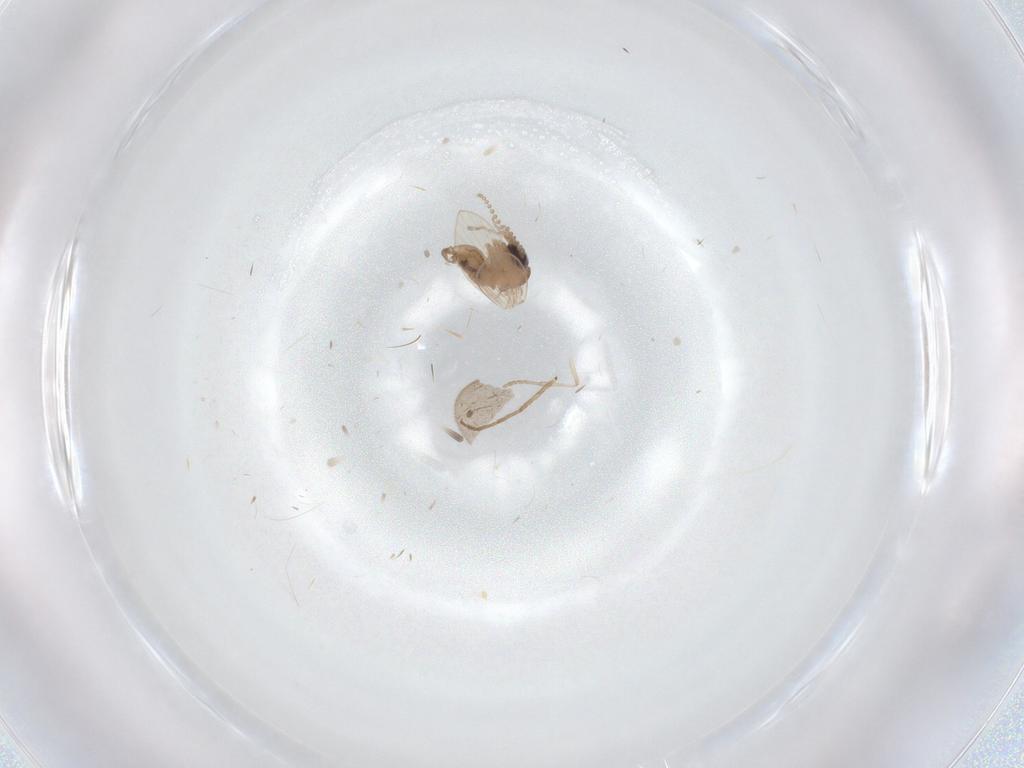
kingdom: Animalia
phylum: Arthropoda
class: Insecta
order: Diptera
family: Psychodidae
